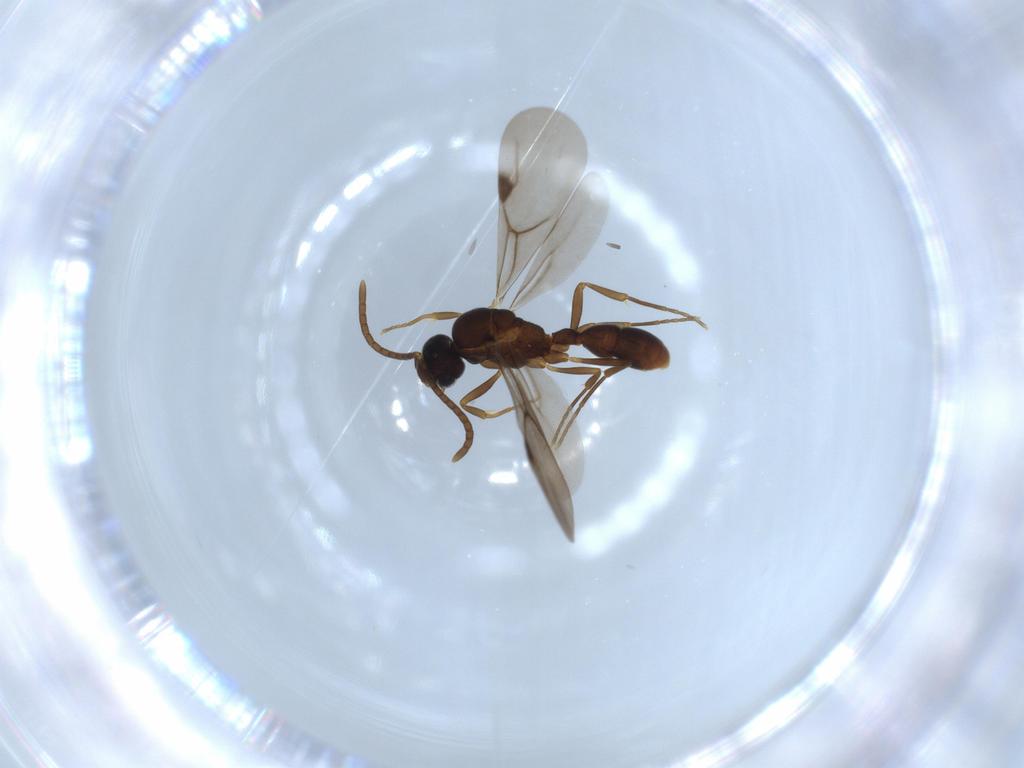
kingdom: Animalia
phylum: Arthropoda
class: Insecta
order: Hymenoptera
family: Formicidae
